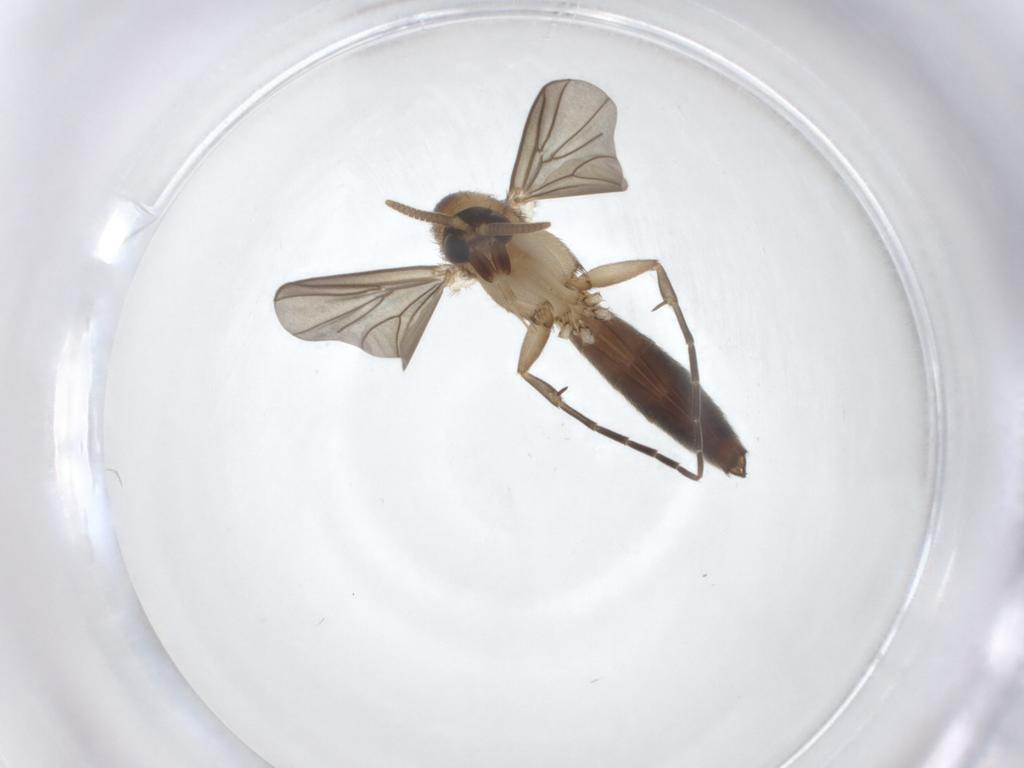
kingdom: Animalia
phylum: Arthropoda
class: Insecta
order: Diptera
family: Mycetophilidae
